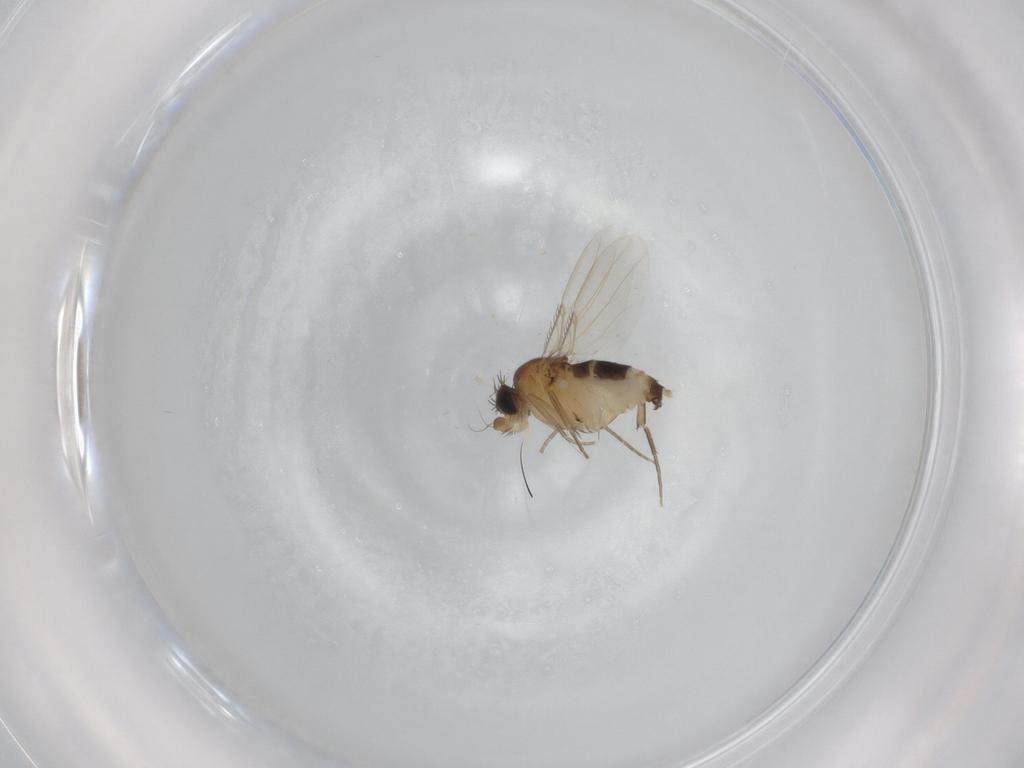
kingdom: Animalia
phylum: Arthropoda
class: Insecta
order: Diptera
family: Phoridae
